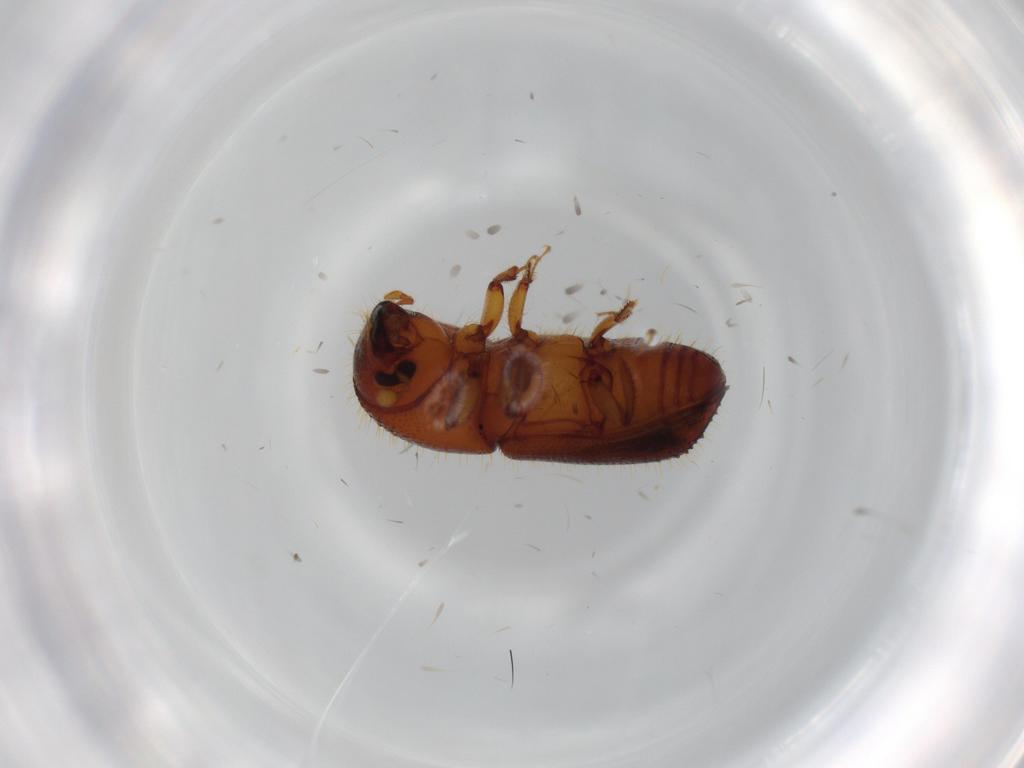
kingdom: Animalia
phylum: Arthropoda
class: Insecta
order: Coleoptera
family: Curculionidae
